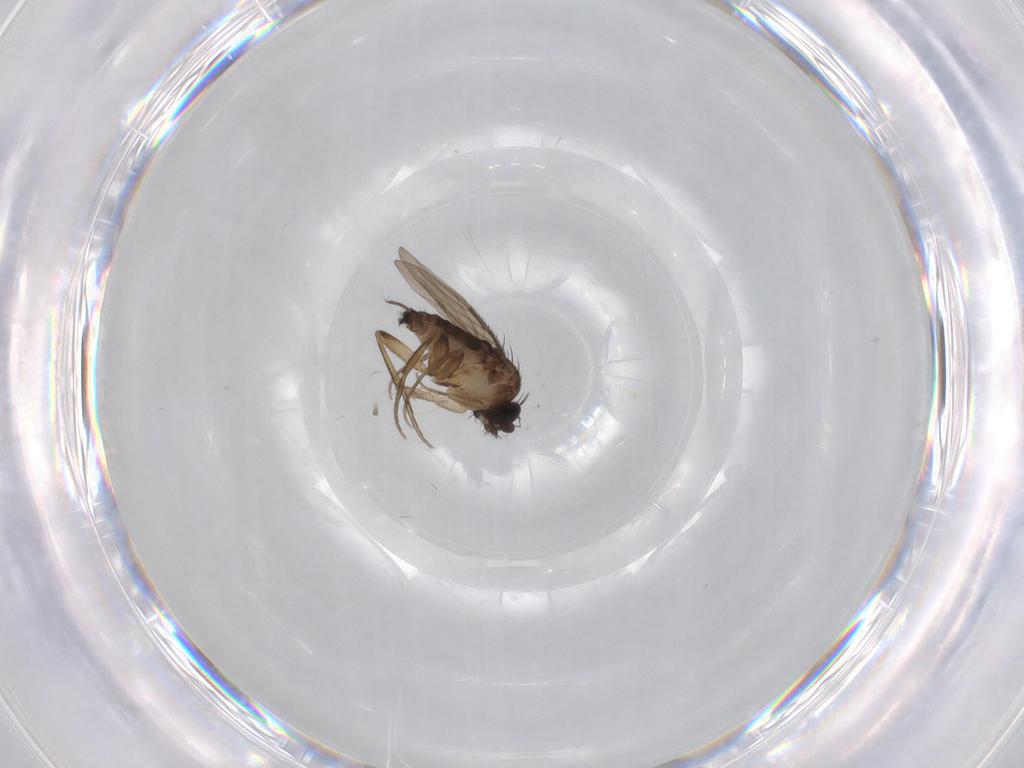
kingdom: Animalia
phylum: Arthropoda
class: Insecta
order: Diptera
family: Phoridae
